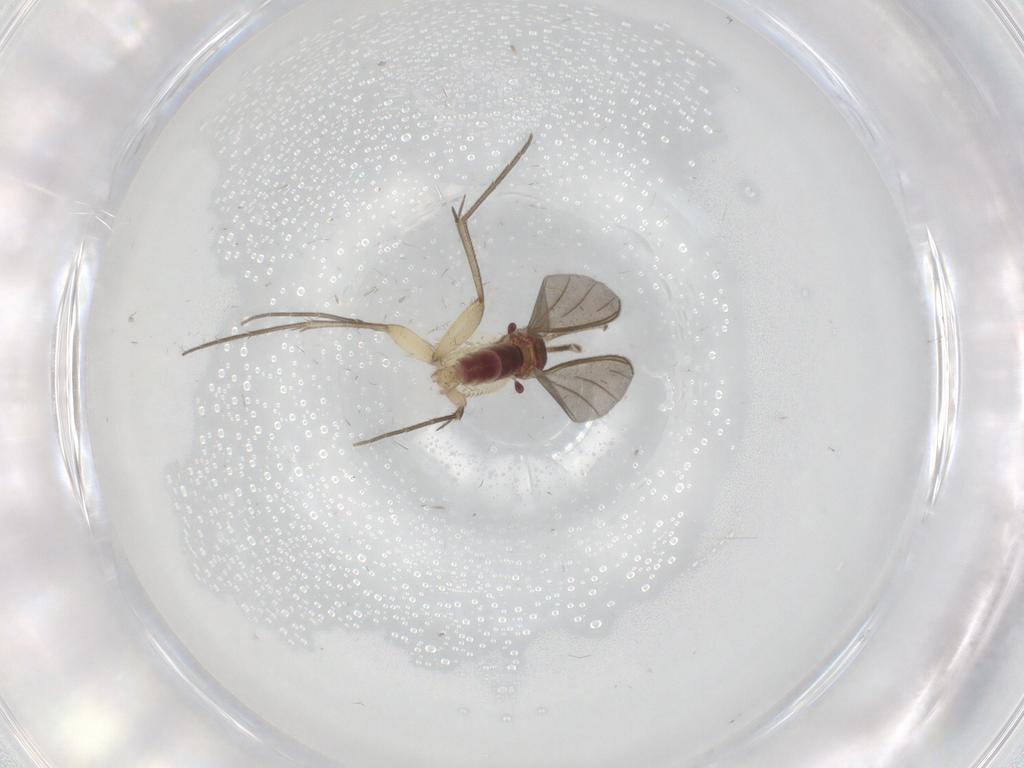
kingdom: Animalia
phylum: Arthropoda
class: Insecta
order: Diptera
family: Mycetophilidae
